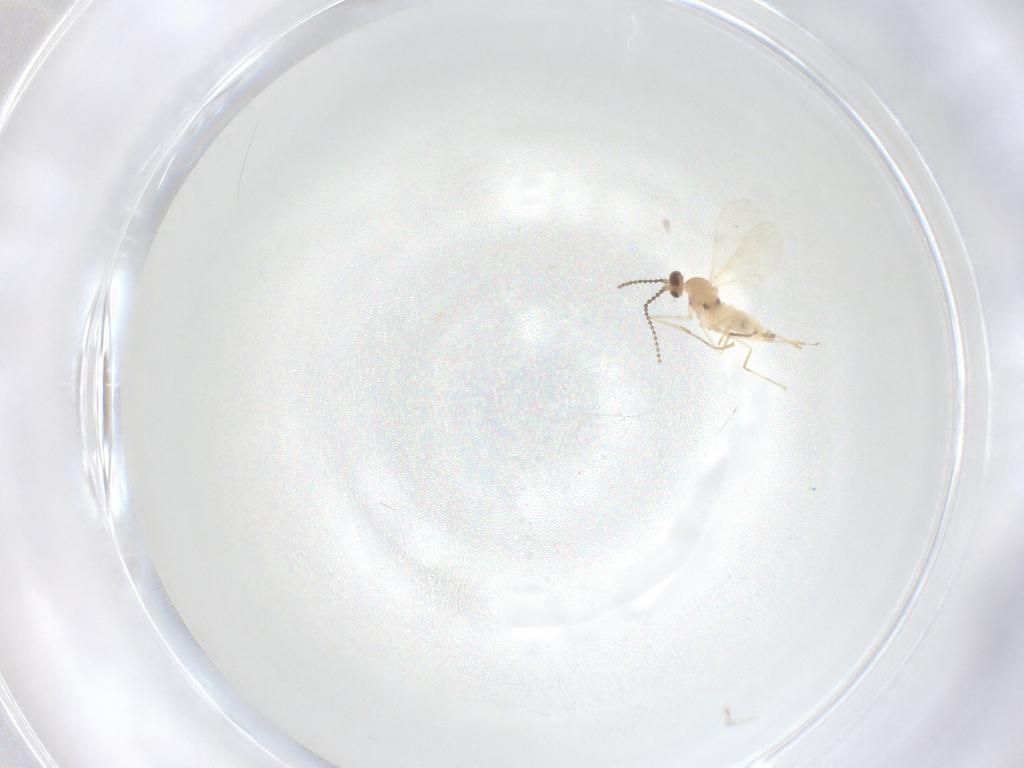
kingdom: Animalia
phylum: Arthropoda
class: Insecta
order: Diptera
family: Cecidomyiidae
